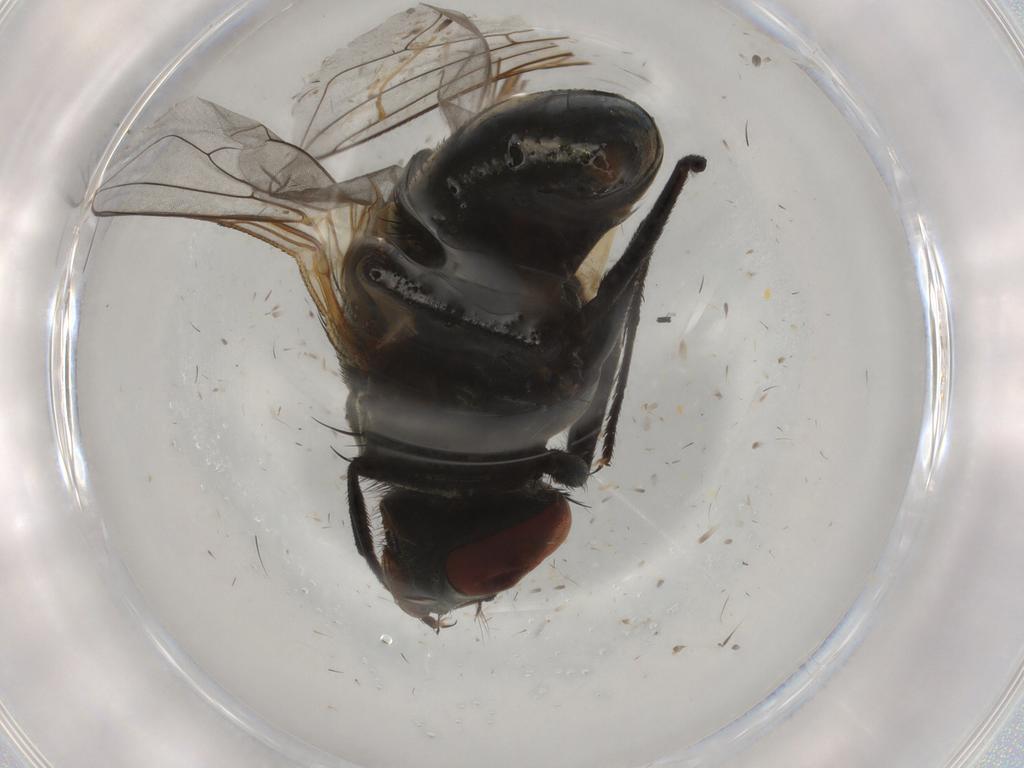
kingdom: Animalia
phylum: Arthropoda
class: Insecta
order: Diptera
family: Muscidae
